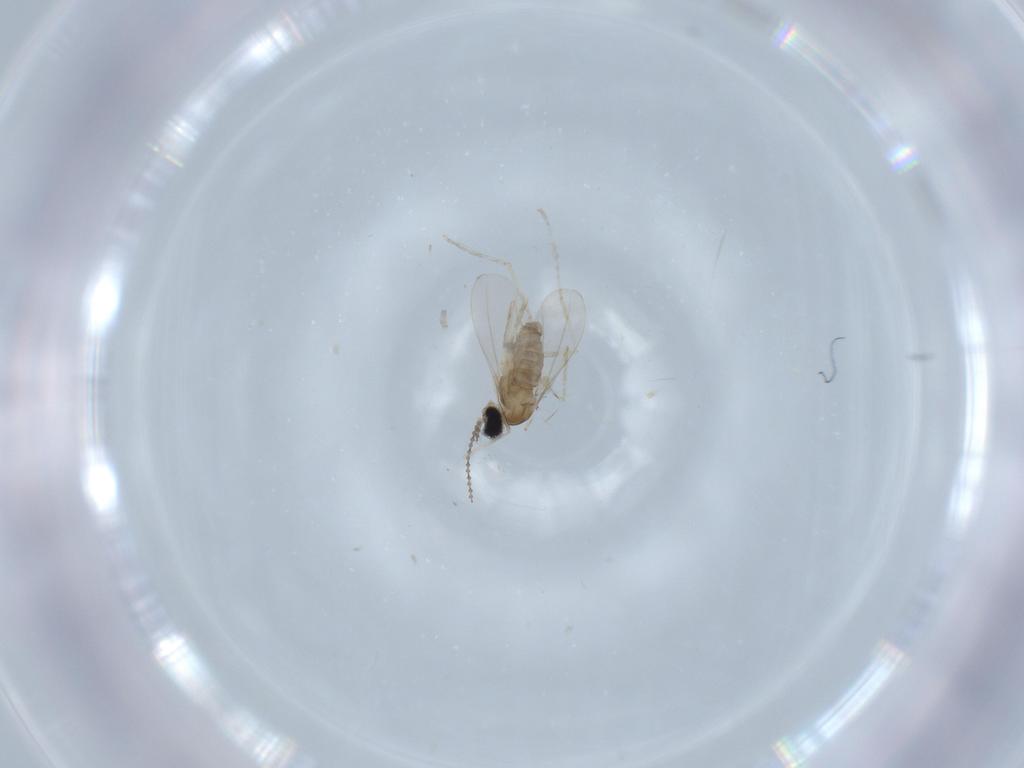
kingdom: Animalia
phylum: Arthropoda
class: Insecta
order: Diptera
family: Cecidomyiidae
